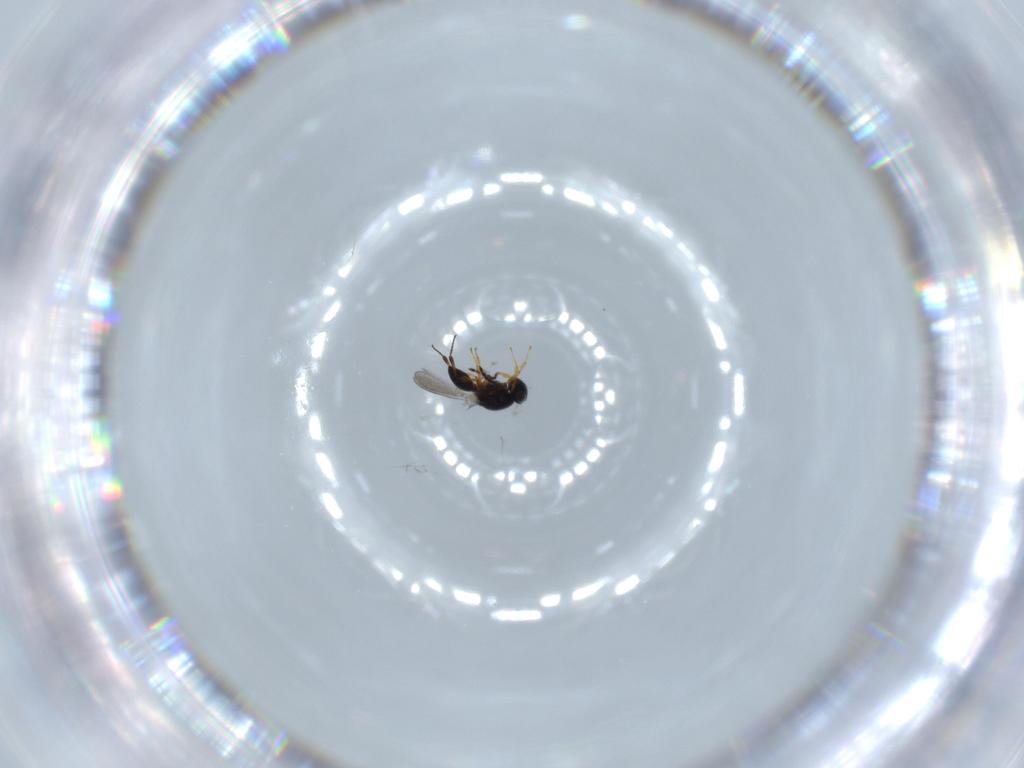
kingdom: Animalia
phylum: Arthropoda
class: Insecta
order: Hymenoptera
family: Platygastridae
